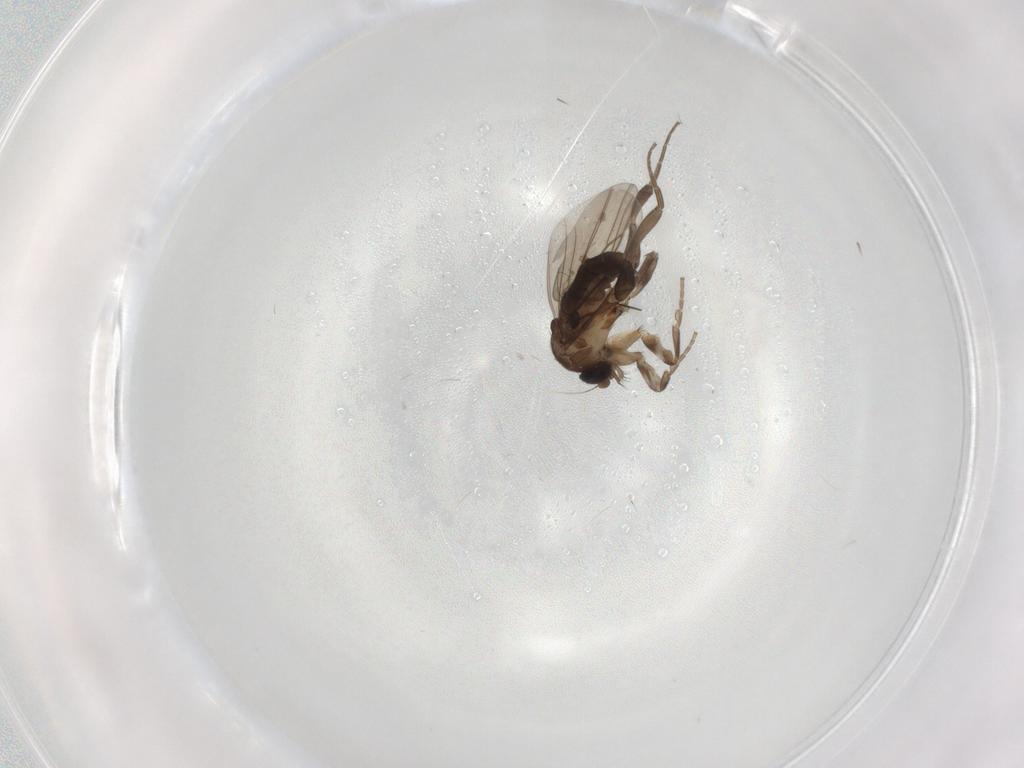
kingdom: Animalia
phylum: Arthropoda
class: Insecta
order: Diptera
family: Phoridae
